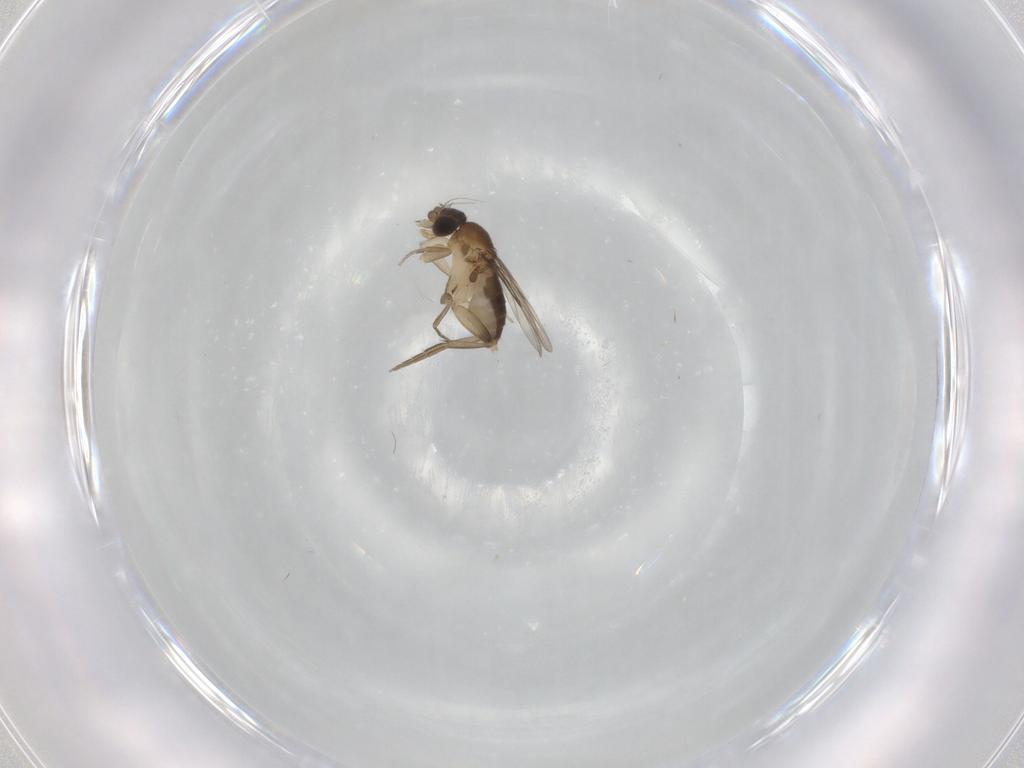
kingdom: Animalia
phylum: Arthropoda
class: Insecta
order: Diptera
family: Phoridae
